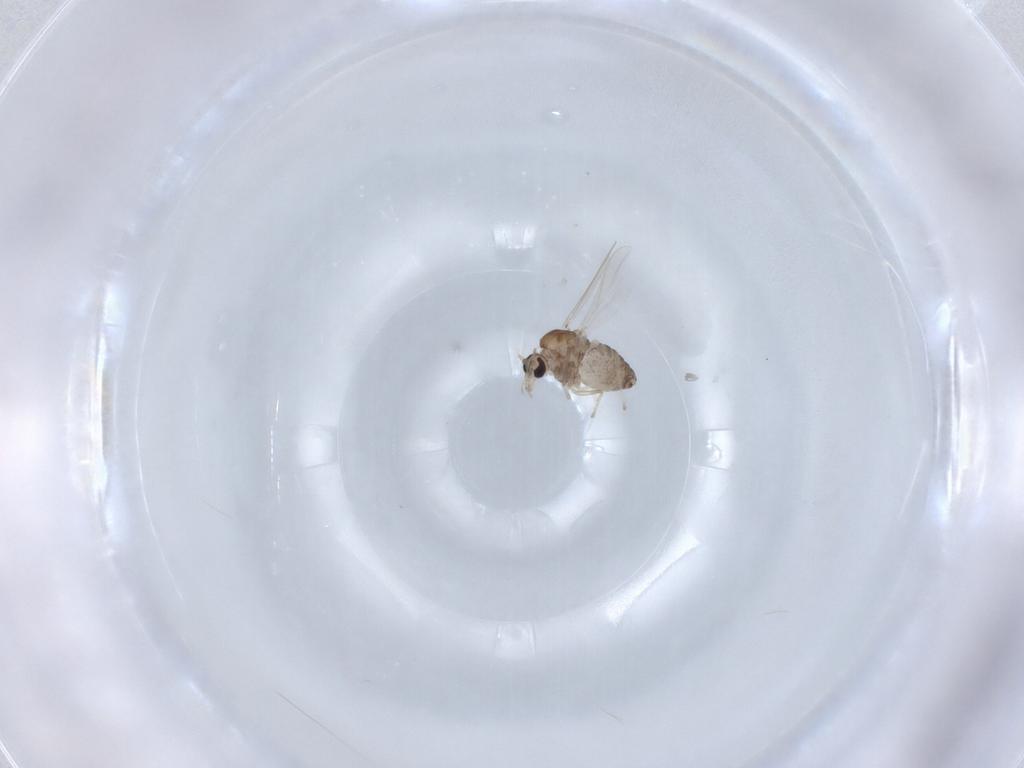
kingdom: Animalia
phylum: Arthropoda
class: Insecta
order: Diptera
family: Chironomidae
